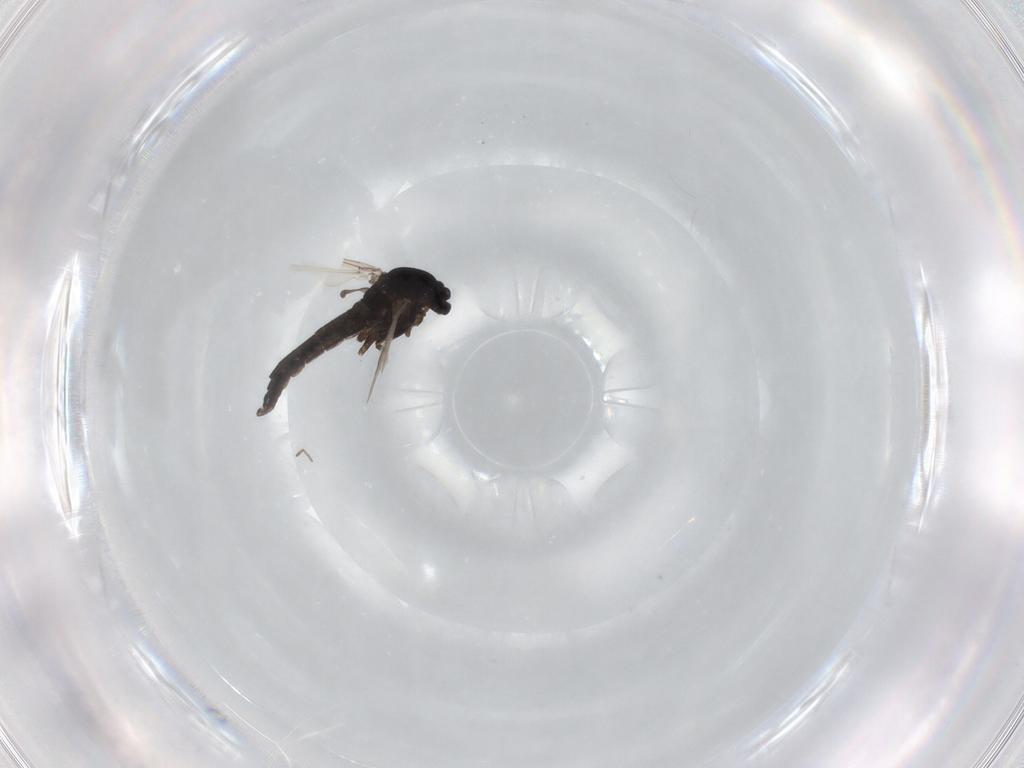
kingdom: Animalia
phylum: Arthropoda
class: Insecta
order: Diptera
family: Chironomidae
